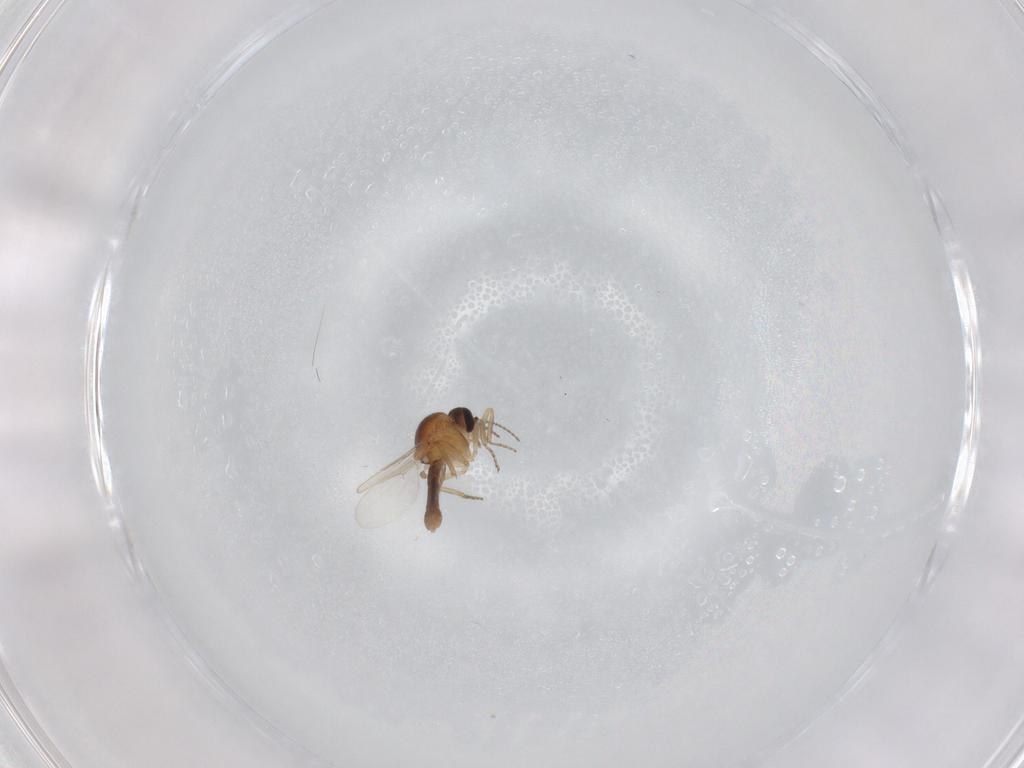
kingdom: Animalia
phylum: Arthropoda
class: Insecta
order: Diptera
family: Ceratopogonidae
